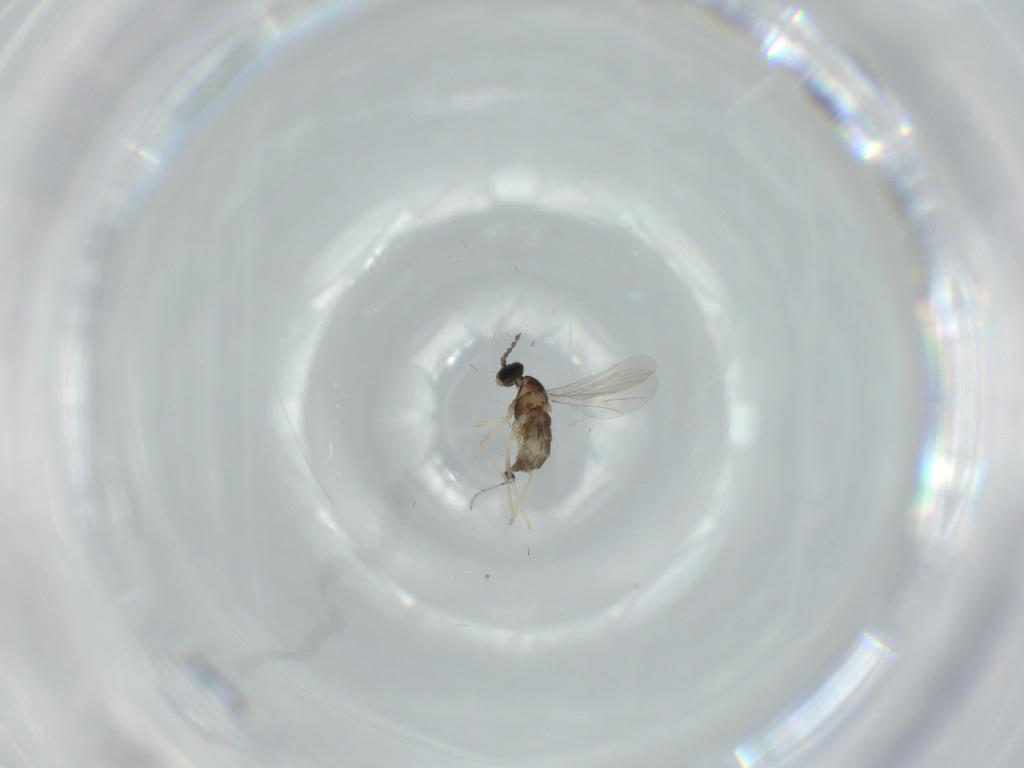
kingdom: Animalia
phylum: Arthropoda
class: Insecta
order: Diptera
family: Cecidomyiidae
